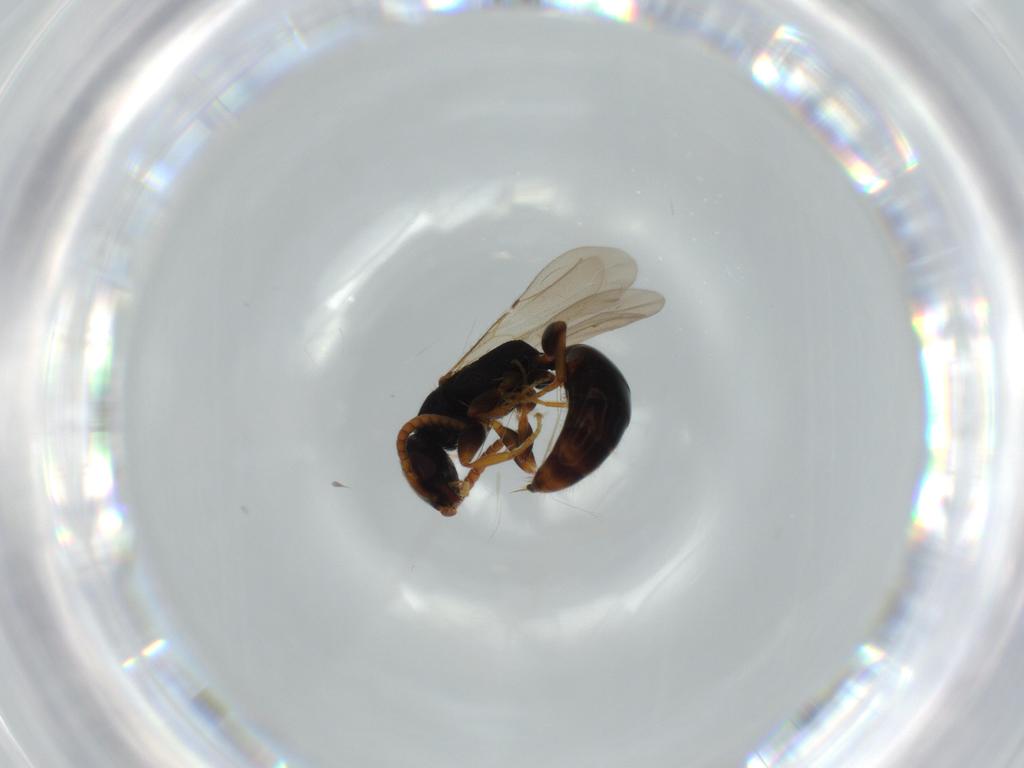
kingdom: Animalia
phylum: Arthropoda
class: Insecta
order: Hymenoptera
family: Bethylidae
